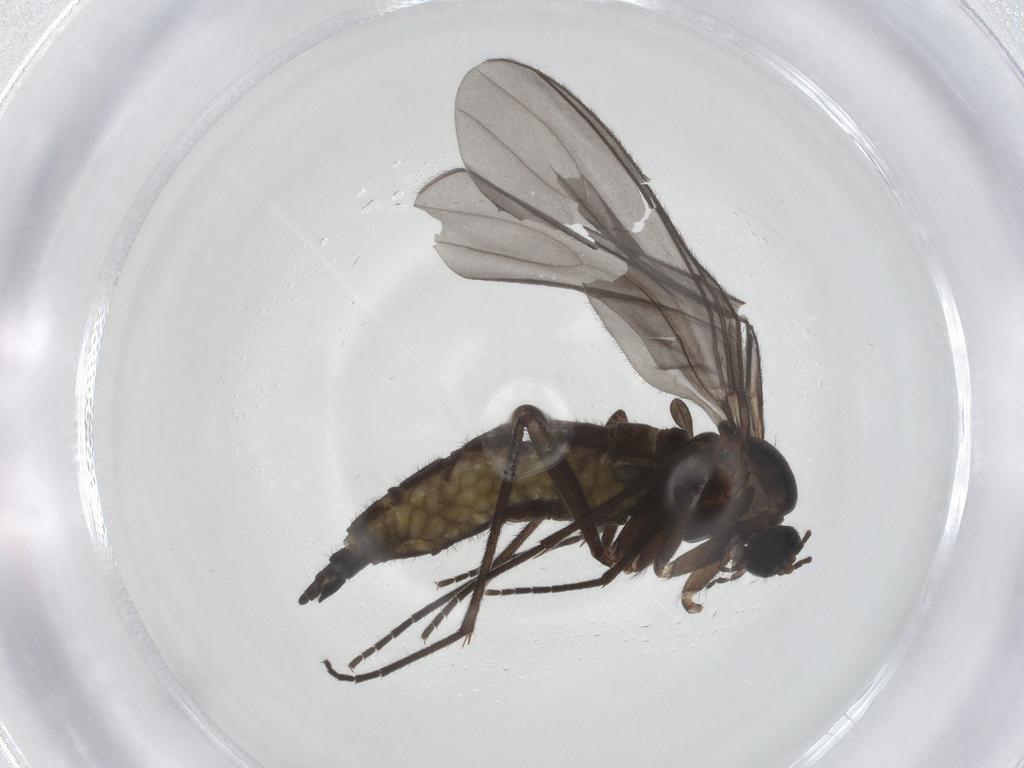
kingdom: Animalia
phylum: Arthropoda
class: Insecta
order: Diptera
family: Sciaridae
